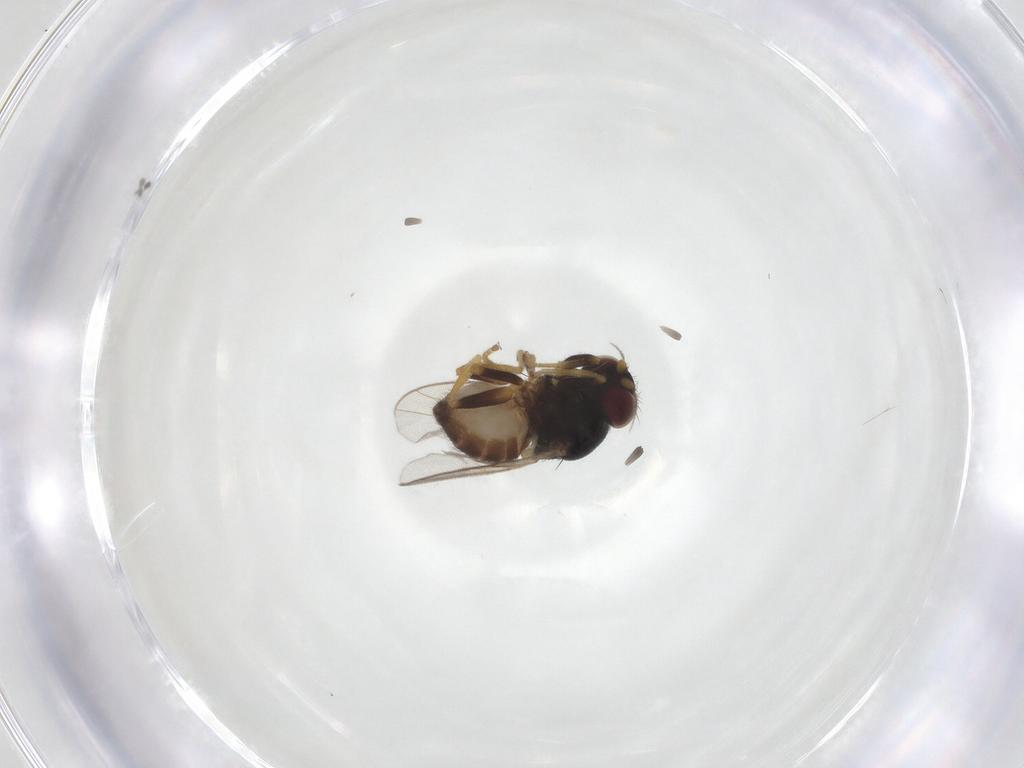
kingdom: Animalia
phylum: Arthropoda
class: Insecta
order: Diptera
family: Chloropidae
